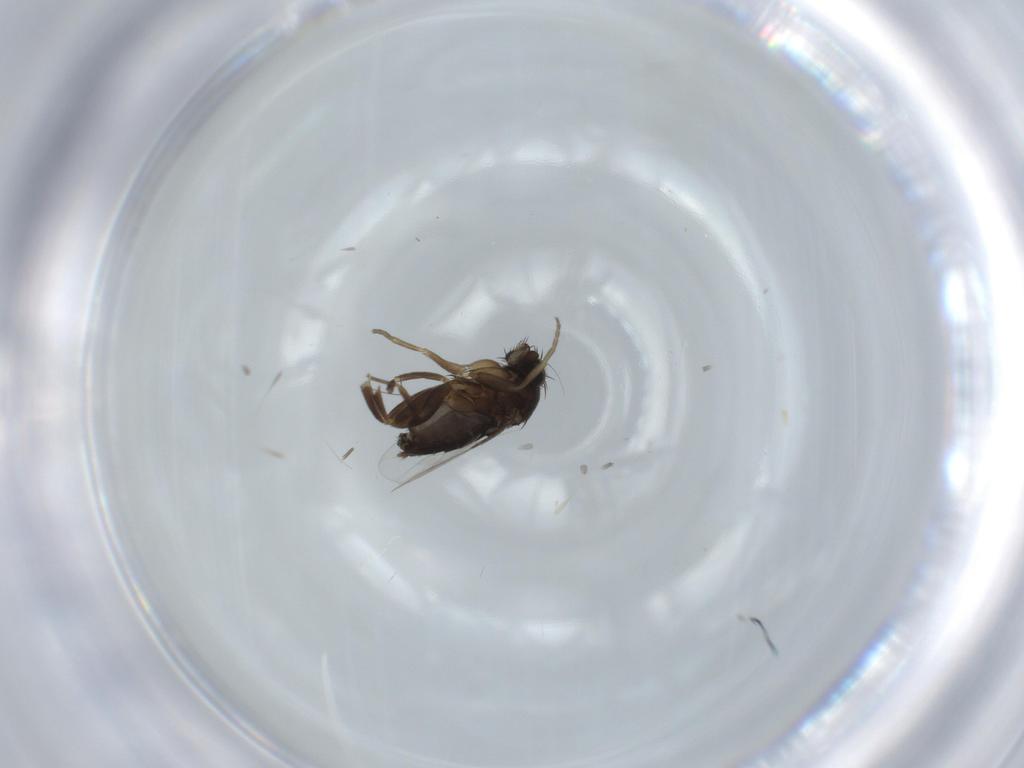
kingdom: Animalia
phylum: Arthropoda
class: Insecta
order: Diptera
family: Phoridae
